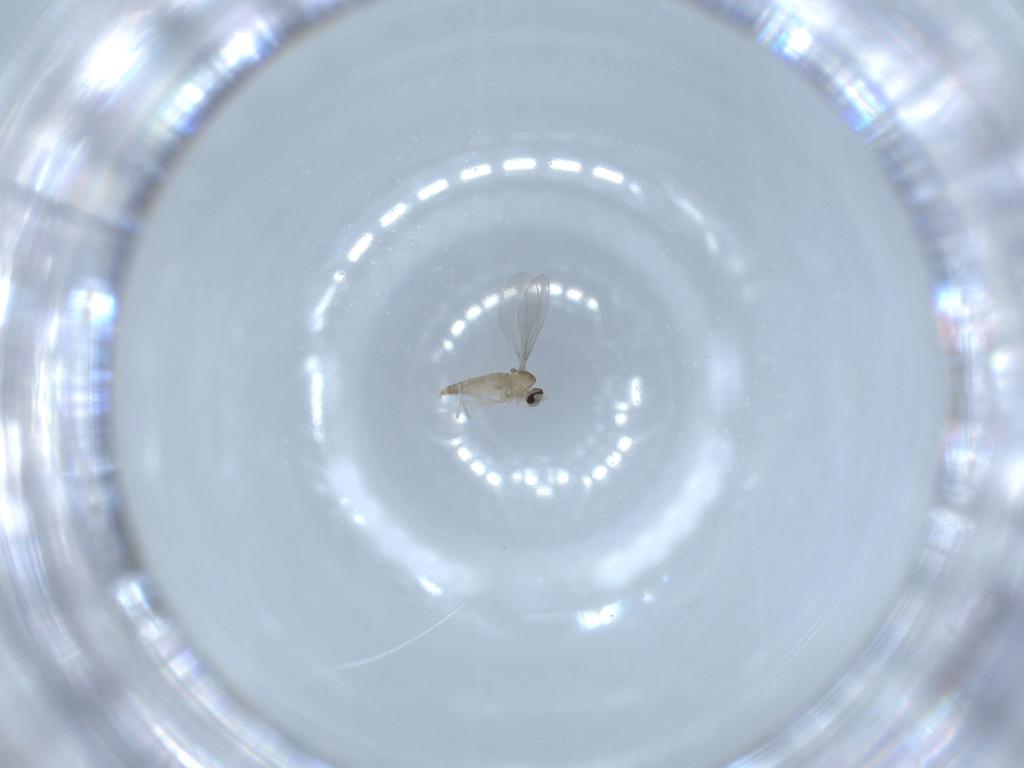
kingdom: Animalia
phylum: Arthropoda
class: Insecta
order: Diptera
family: Cecidomyiidae
